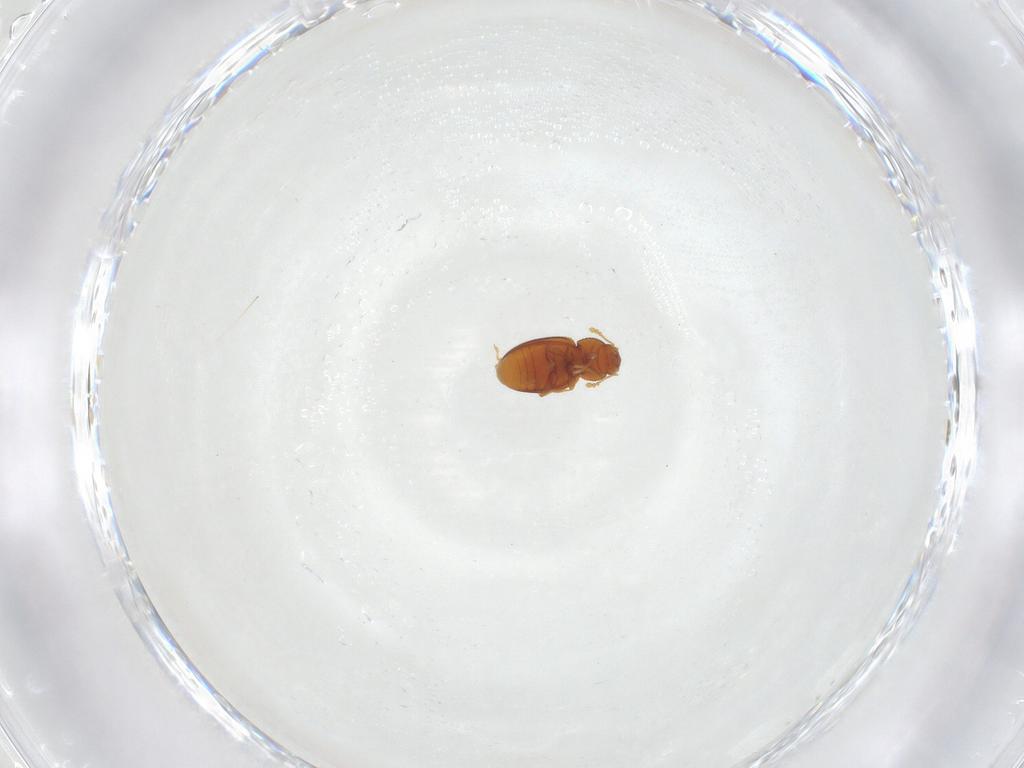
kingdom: Animalia
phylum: Arthropoda
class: Insecta
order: Coleoptera
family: Latridiidae
